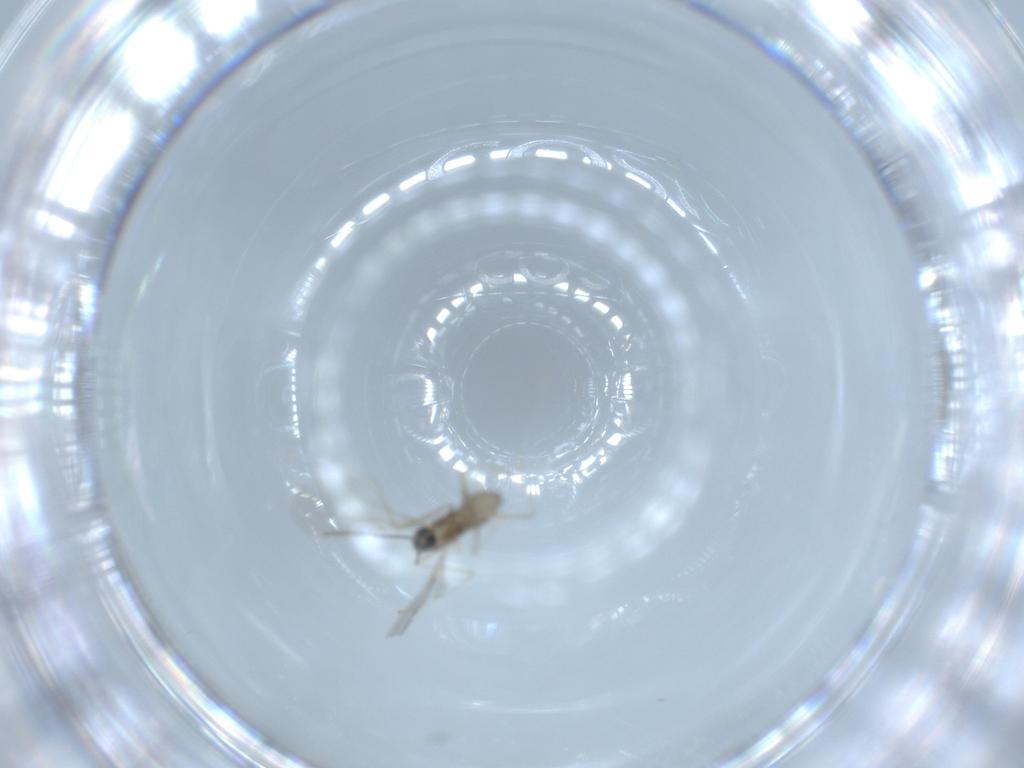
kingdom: Animalia
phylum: Arthropoda
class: Insecta
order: Diptera
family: Cecidomyiidae
